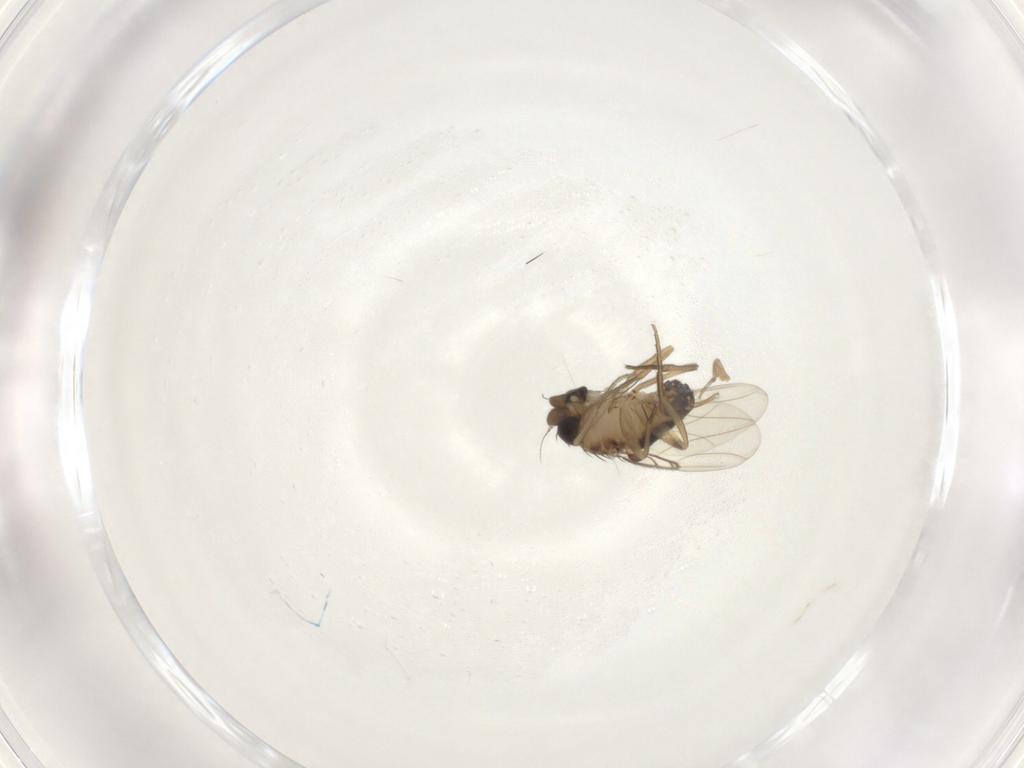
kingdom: Animalia
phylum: Arthropoda
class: Insecta
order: Diptera
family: Phoridae
